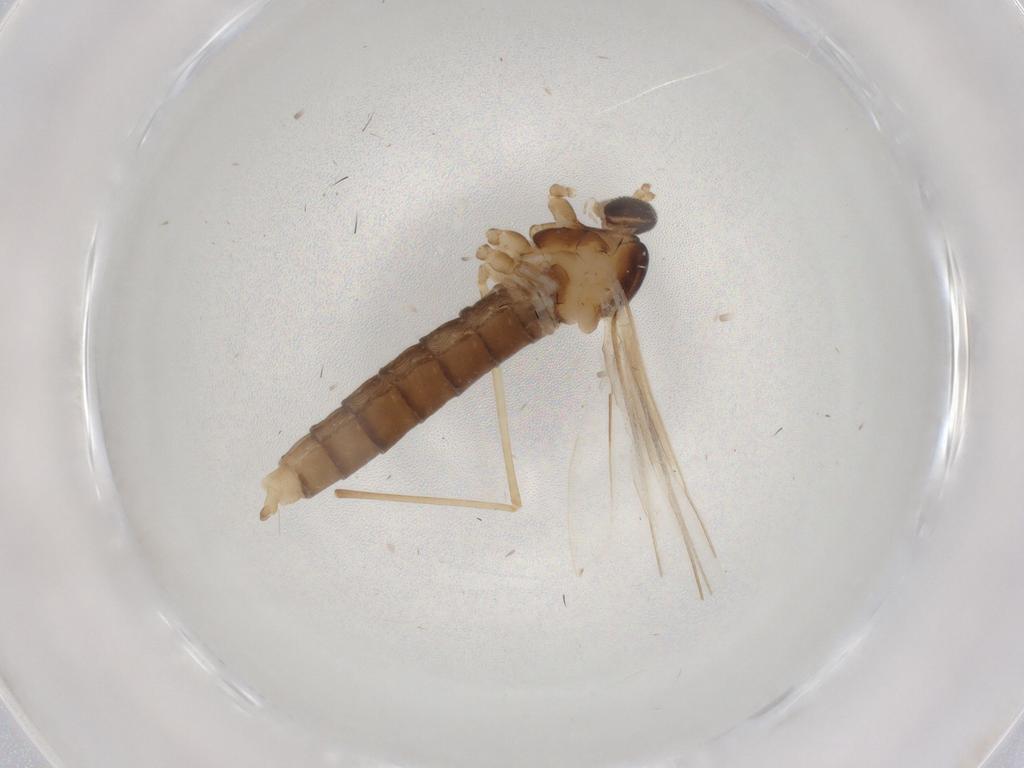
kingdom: Animalia
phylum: Arthropoda
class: Insecta
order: Diptera
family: Cecidomyiidae
